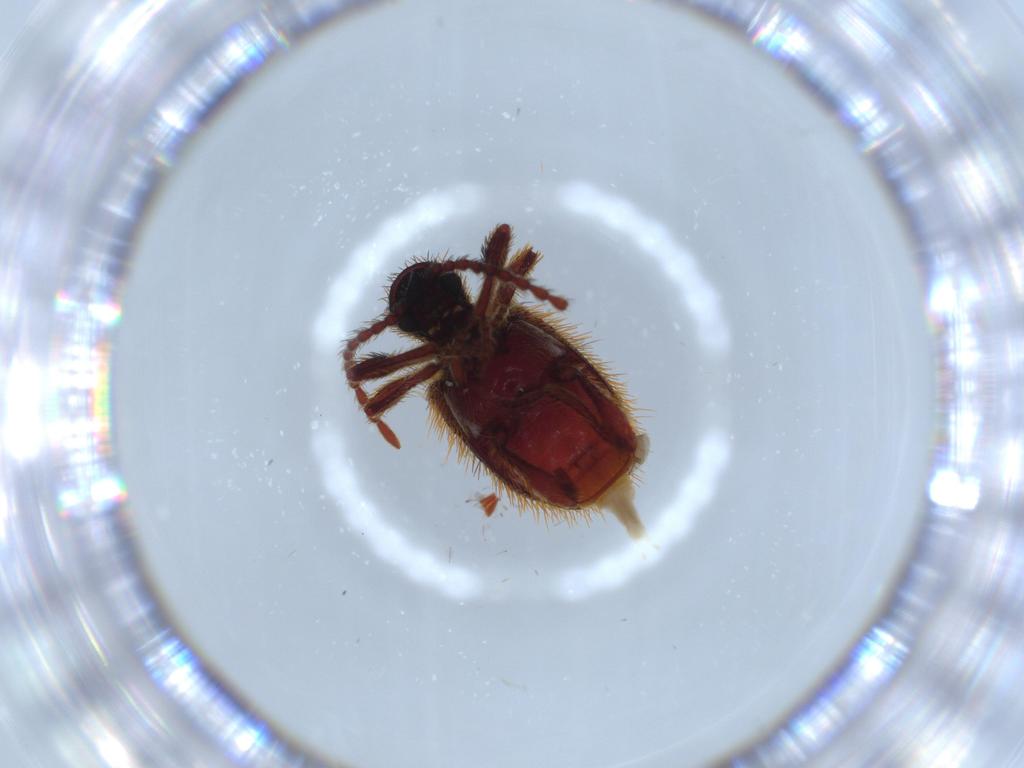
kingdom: Animalia
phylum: Arthropoda
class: Insecta
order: Coleoptera
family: Ptinidae
